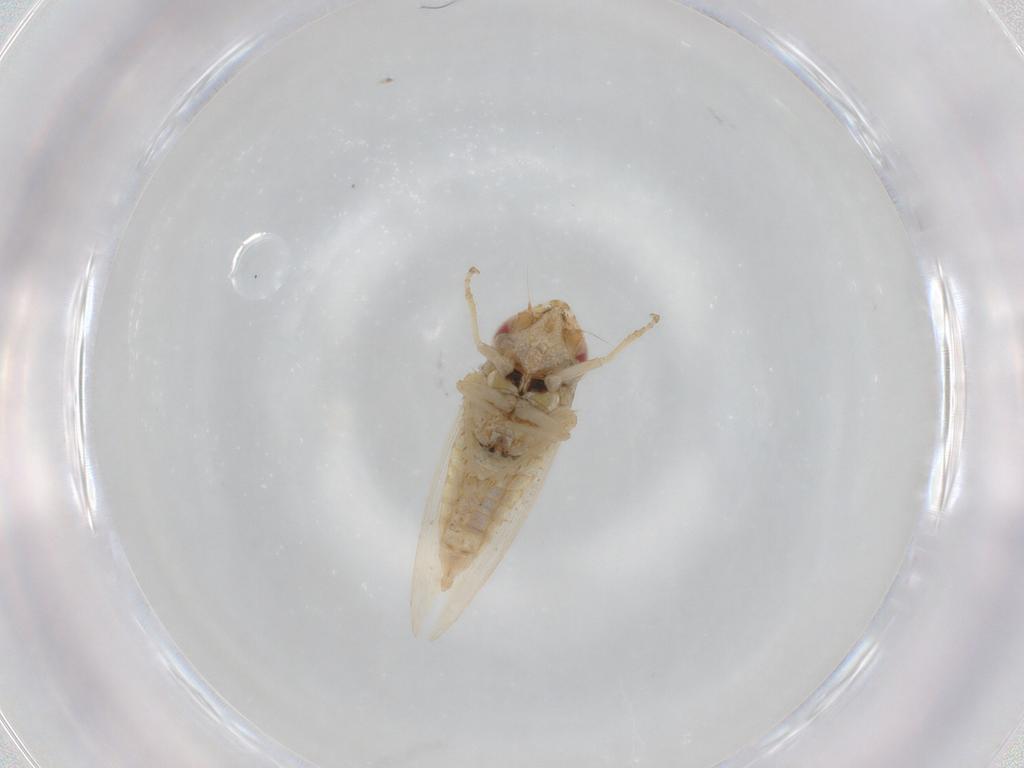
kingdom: Animalia
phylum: Arthropoda
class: Insecta
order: Hemiptera
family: Cicadellidae
